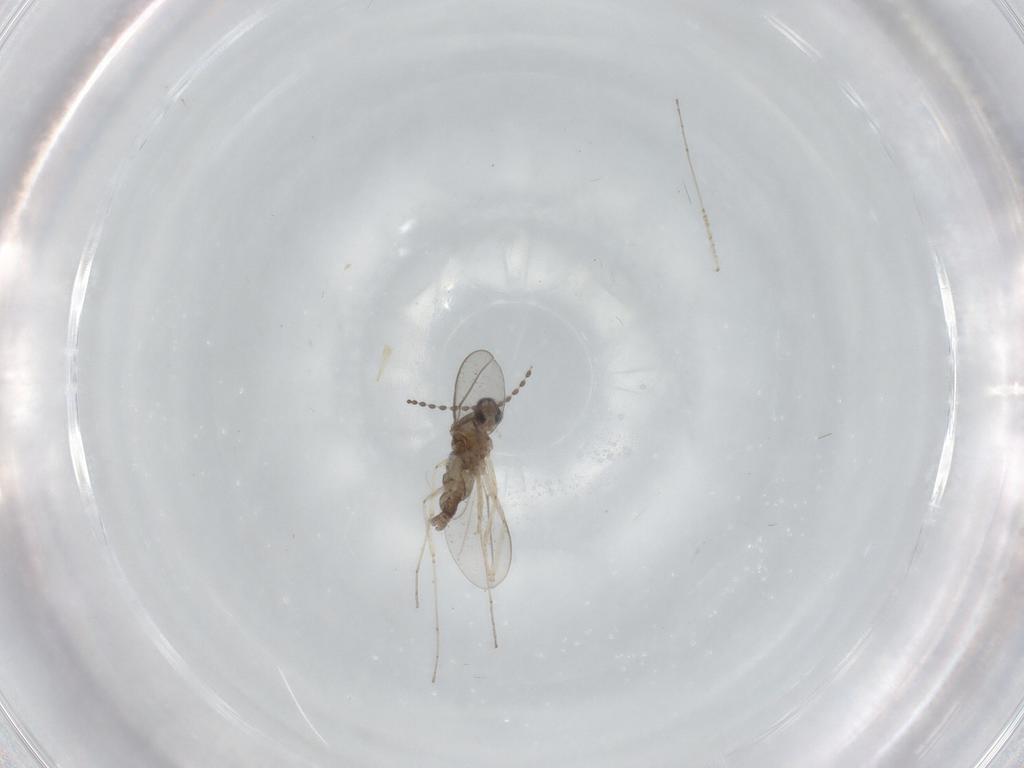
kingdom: Animalia
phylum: Arthropoda
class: Insecta
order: Diptera
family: Cecidomyiidae
